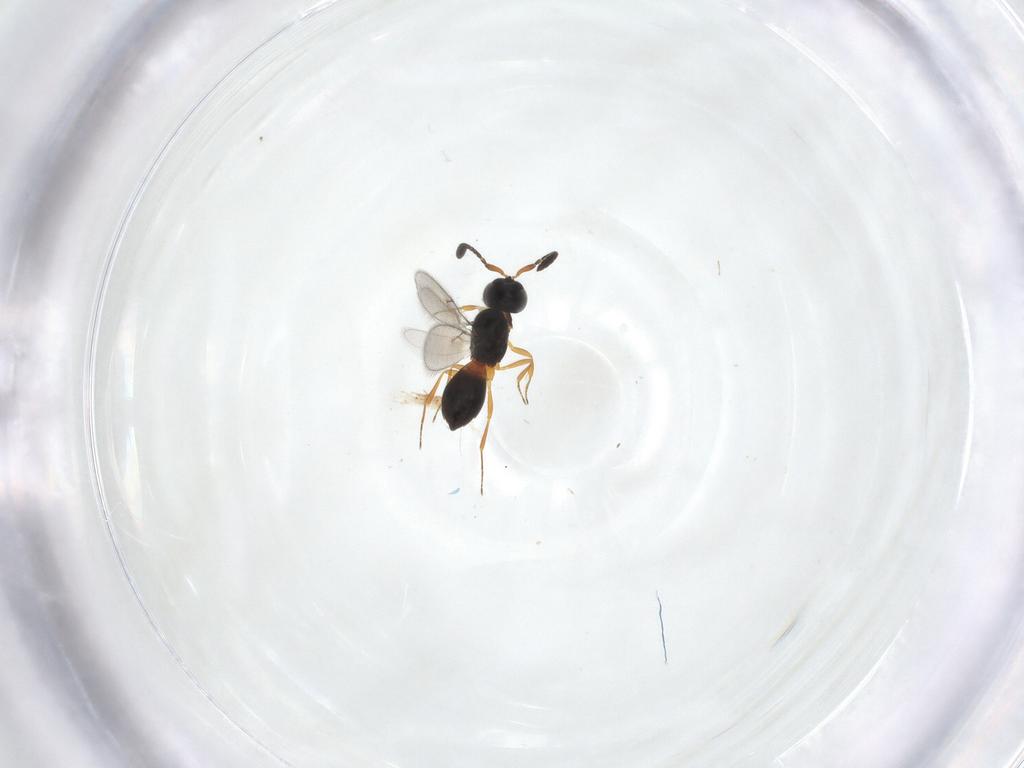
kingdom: Animalia
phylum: Arthropoda
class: Insecta
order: Hymenoptera
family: Scelionidae
